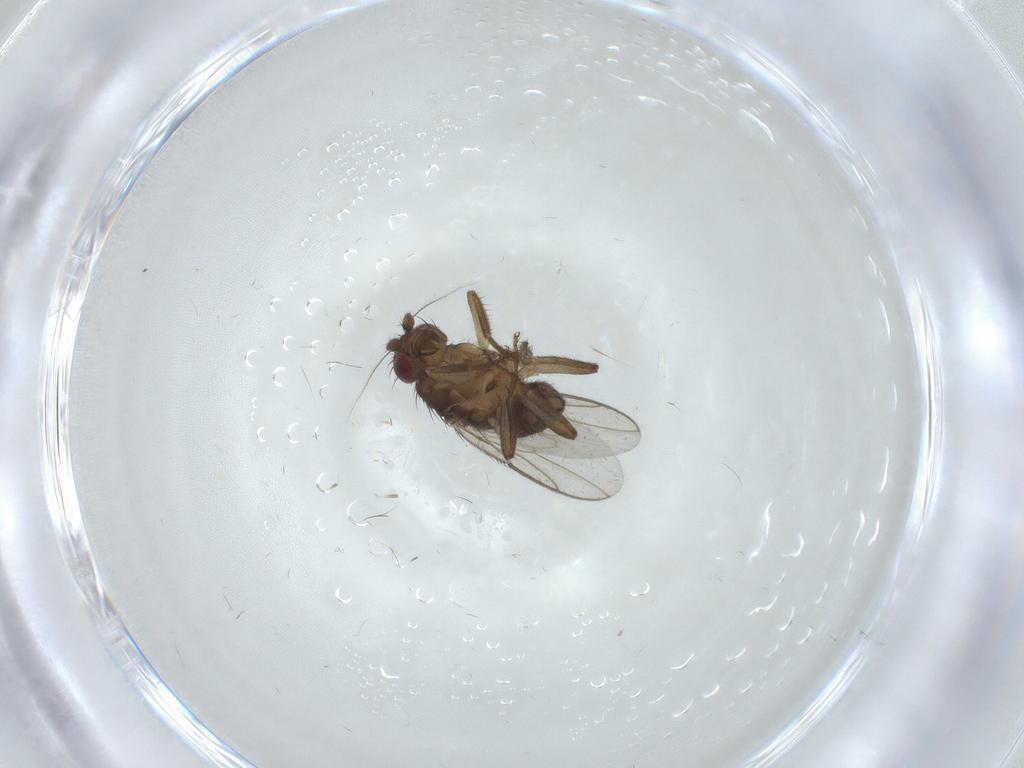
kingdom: Animalia
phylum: Arthropoda
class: Insecta
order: Diptera
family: Sphaeroceridae
